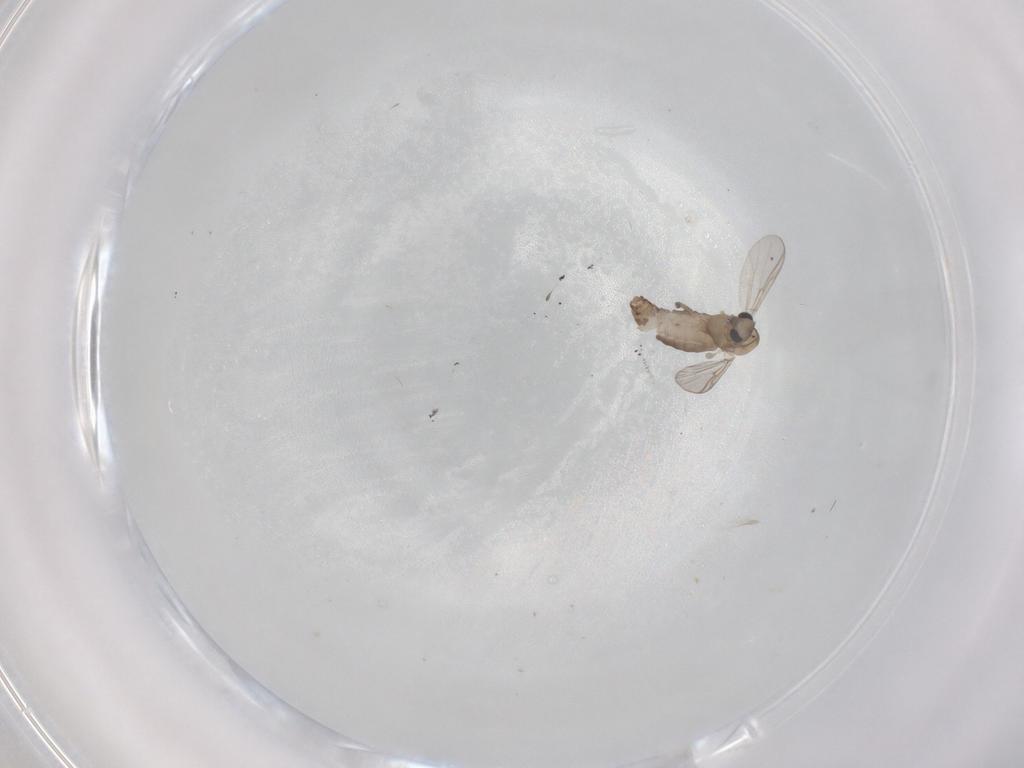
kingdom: Animalia
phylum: Arthropoda
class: Insecta
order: Diptera
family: Chironomidae
